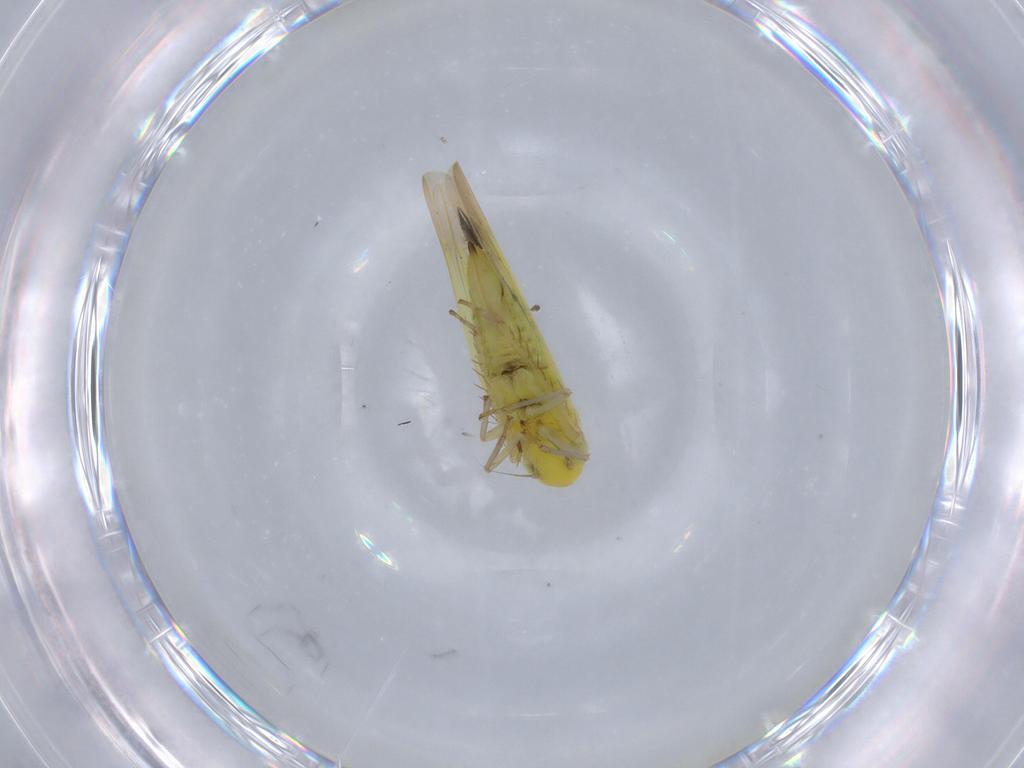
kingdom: Animalia
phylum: Arthropoda
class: Insecta
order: Hemiptera
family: Cicadellidae
